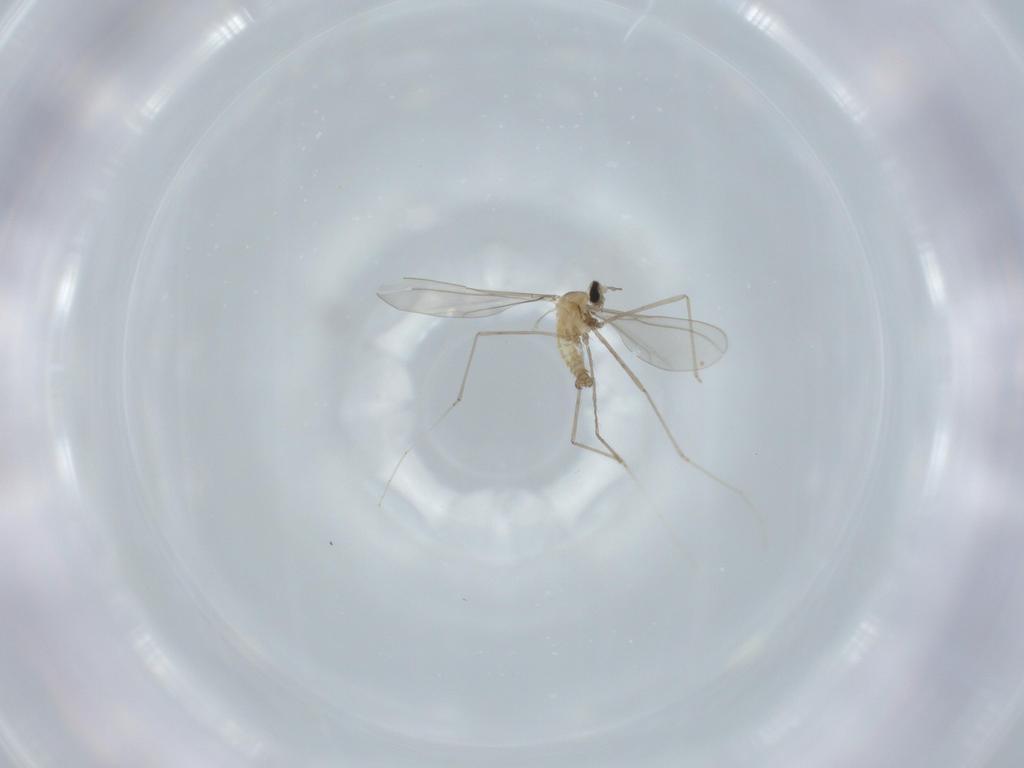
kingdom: Animalia
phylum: Arthropoda
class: Insecta
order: Diptera
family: Cecidomyiidae
